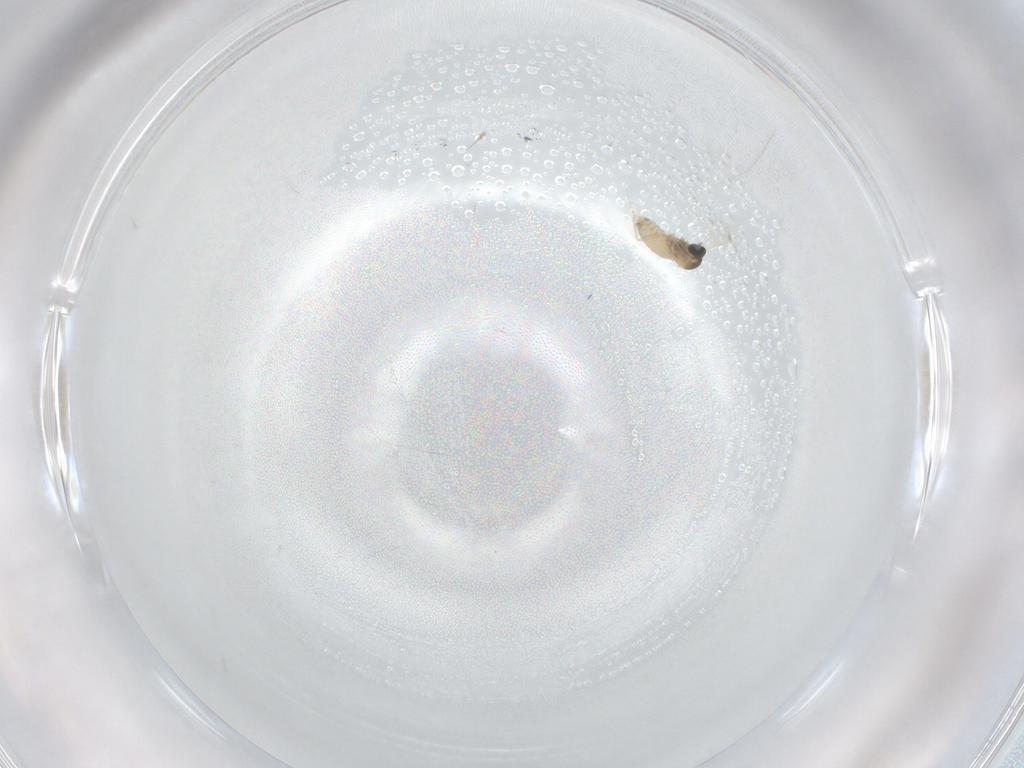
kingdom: Animalia
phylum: Arthropoda
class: Insecta
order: Diptera
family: Cecidomyiidae
